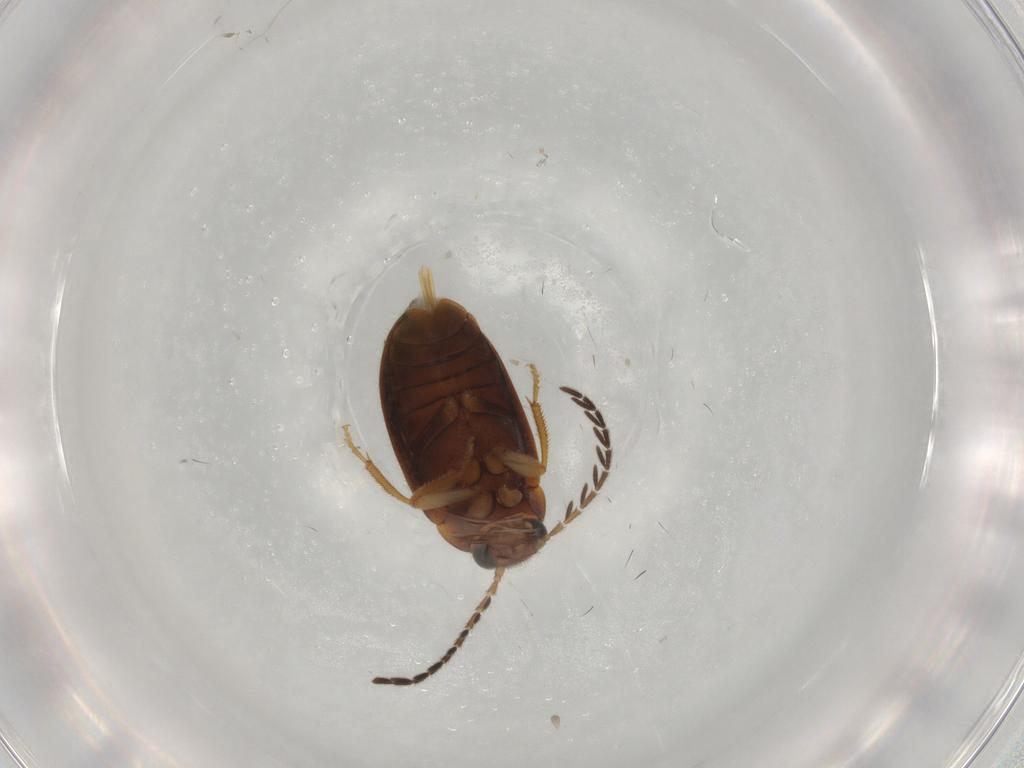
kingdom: Animalia
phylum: Arthropoda
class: Insecta
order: Coleoptera
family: Ptilodactylidae
